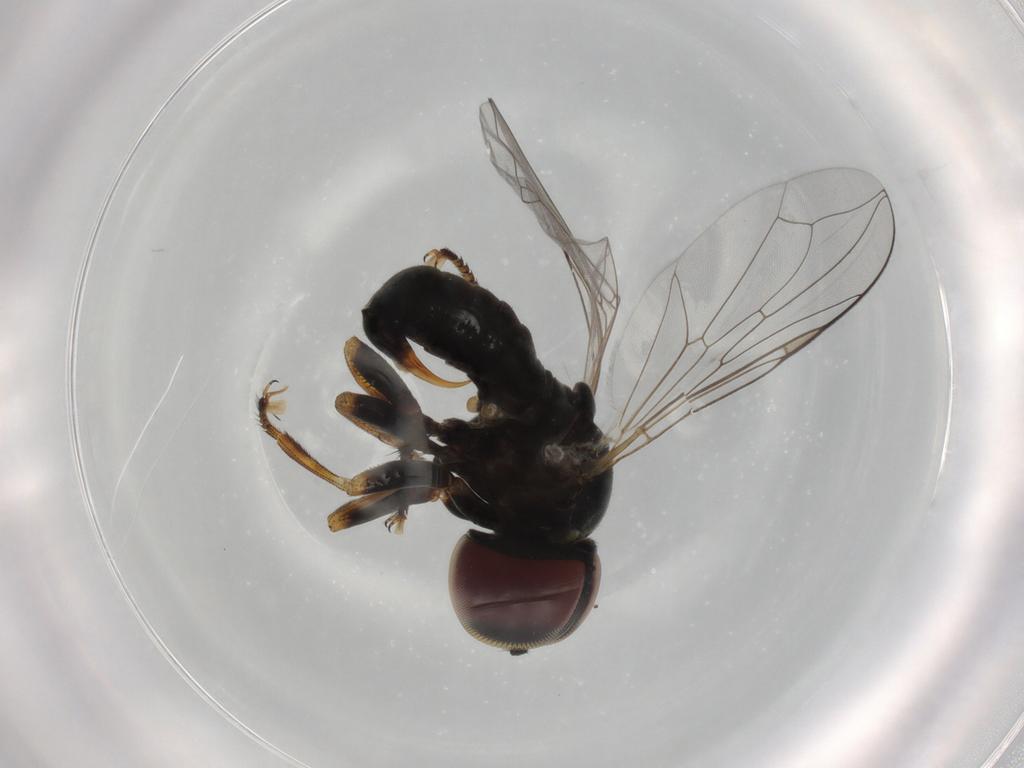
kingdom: Animalia
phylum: Arthropoda
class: Insecta
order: Diptera
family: Pipunculidae
